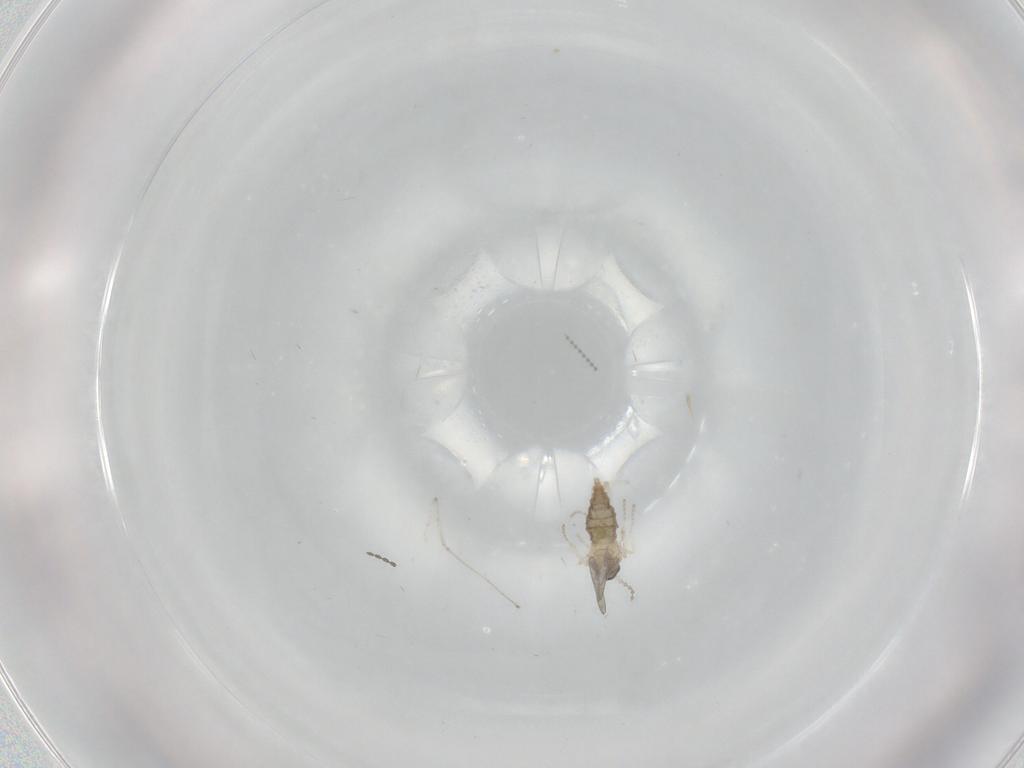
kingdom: Animalia
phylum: Arthropoda
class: Insecta
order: Diptera
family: Cecidomyiidae
